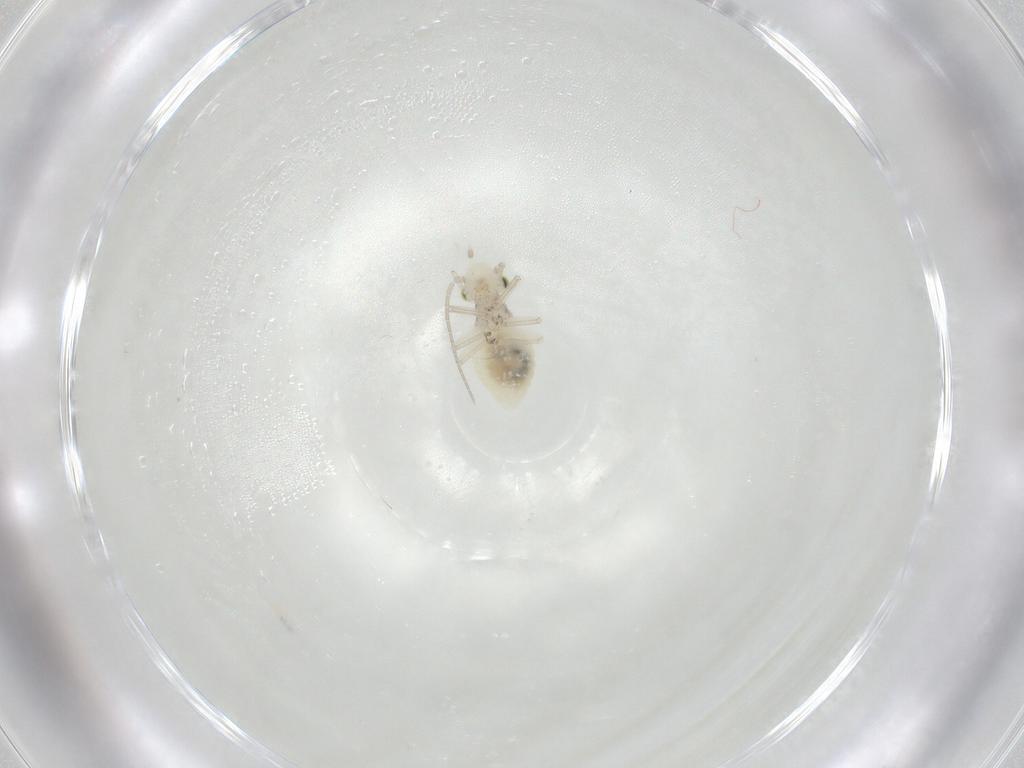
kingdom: Animalia
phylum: Arthropoda
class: Insecta
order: Psocodea
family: Caeciliusidae
